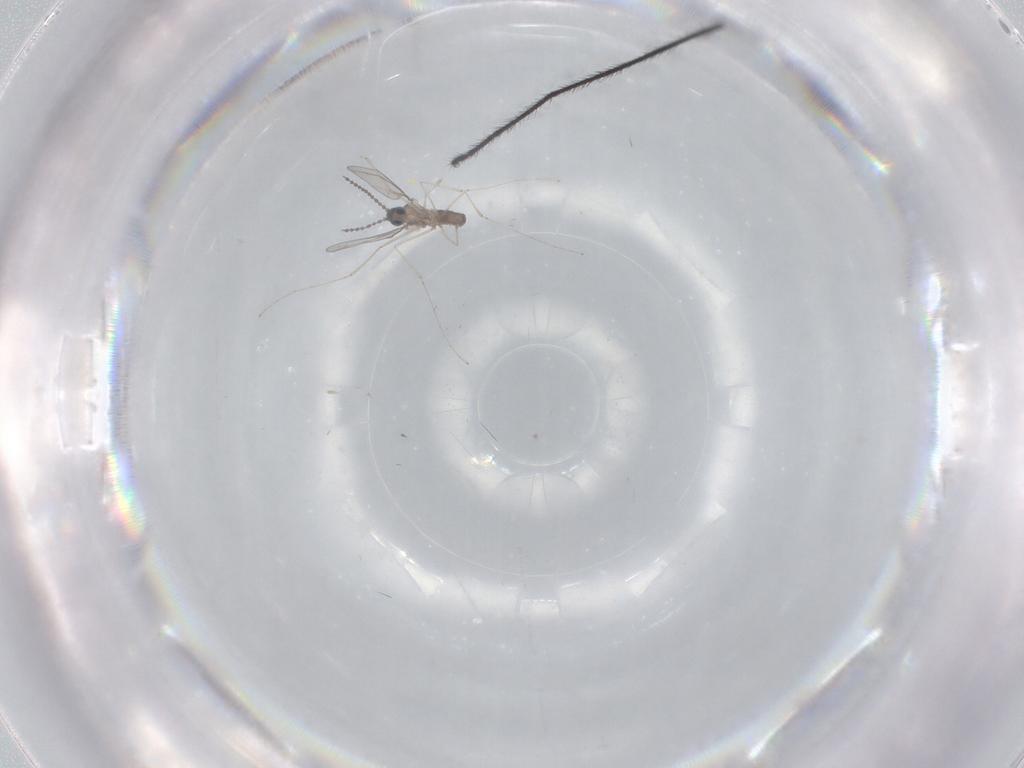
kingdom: Animalia
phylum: Arthropoda
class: Insecta
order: Diptera
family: Cecidomyiidae
